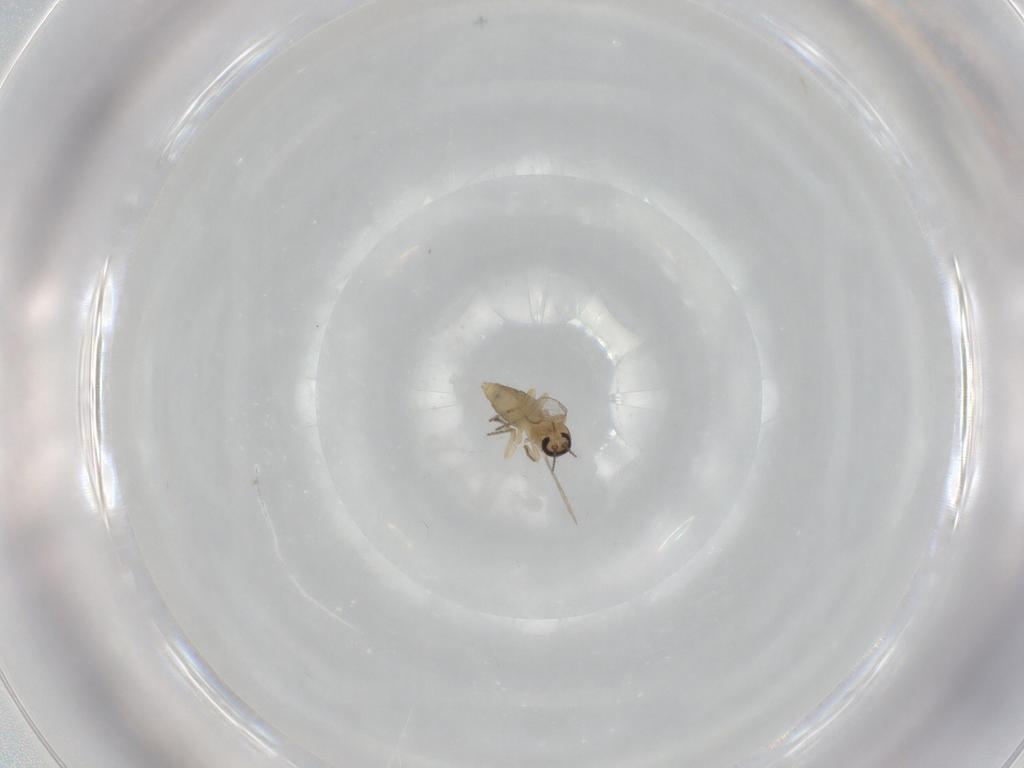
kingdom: Animalia
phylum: Arthropoda
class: Insecta
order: Diptera
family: Ceratopogonidae
